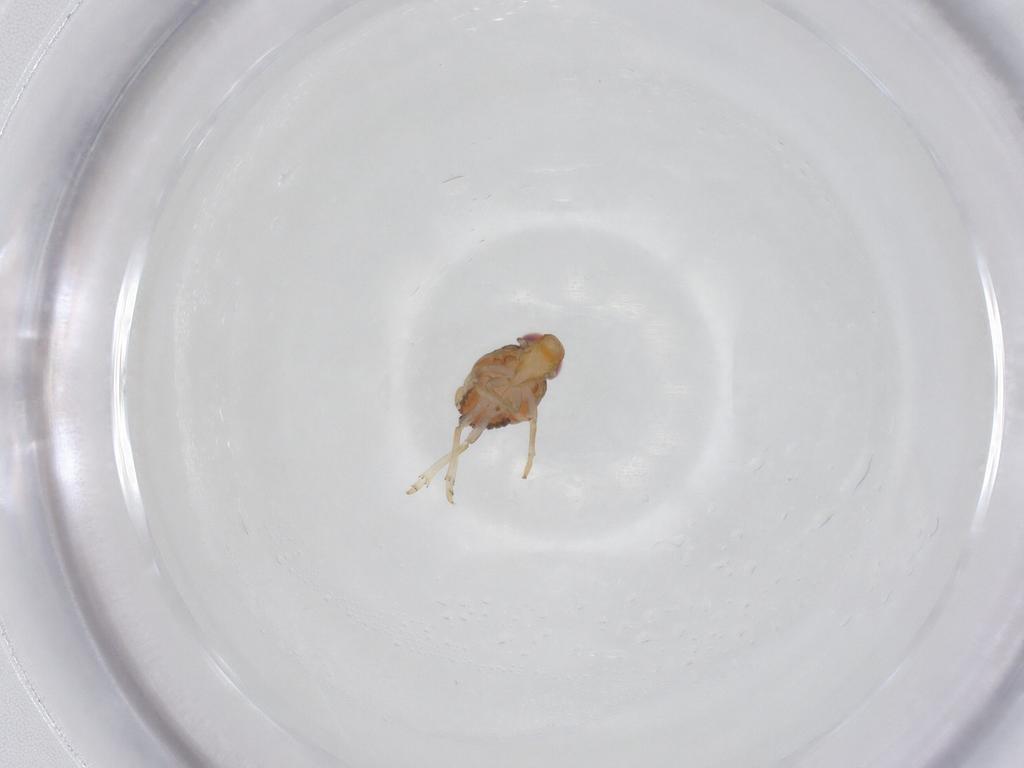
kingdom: Animalia
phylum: Arthropoda
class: Insecta
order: Hemiptera
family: Issidae
